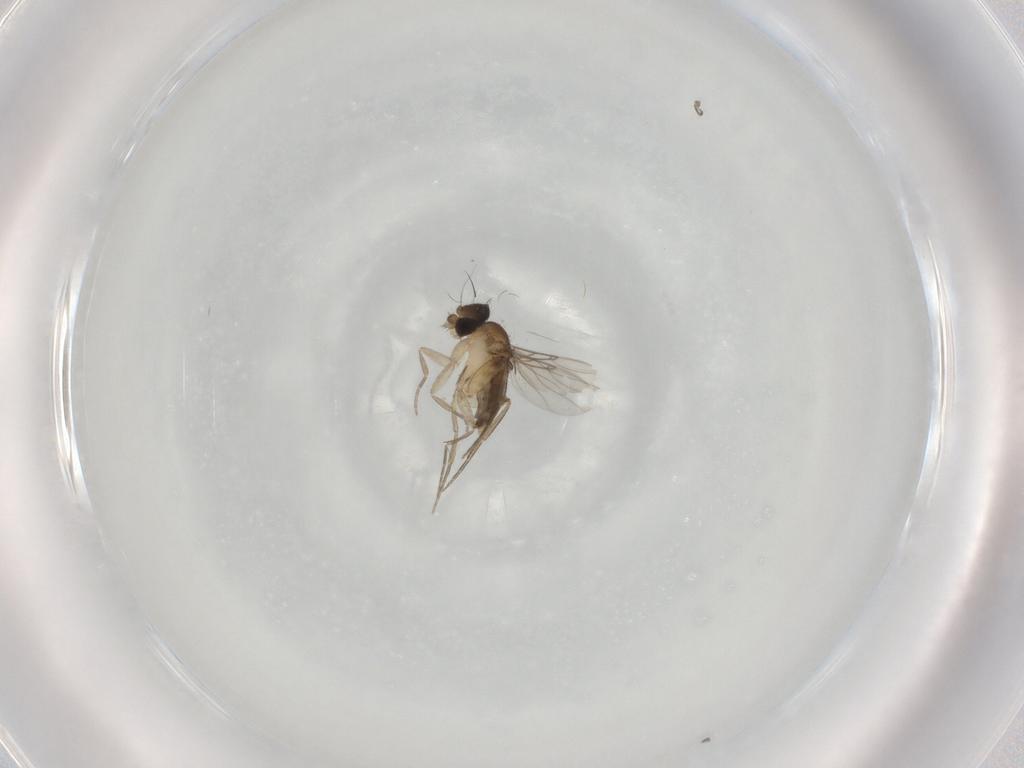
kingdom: Animalia
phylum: Arthropoda
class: Insecta
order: Diptera
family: Phoridae
